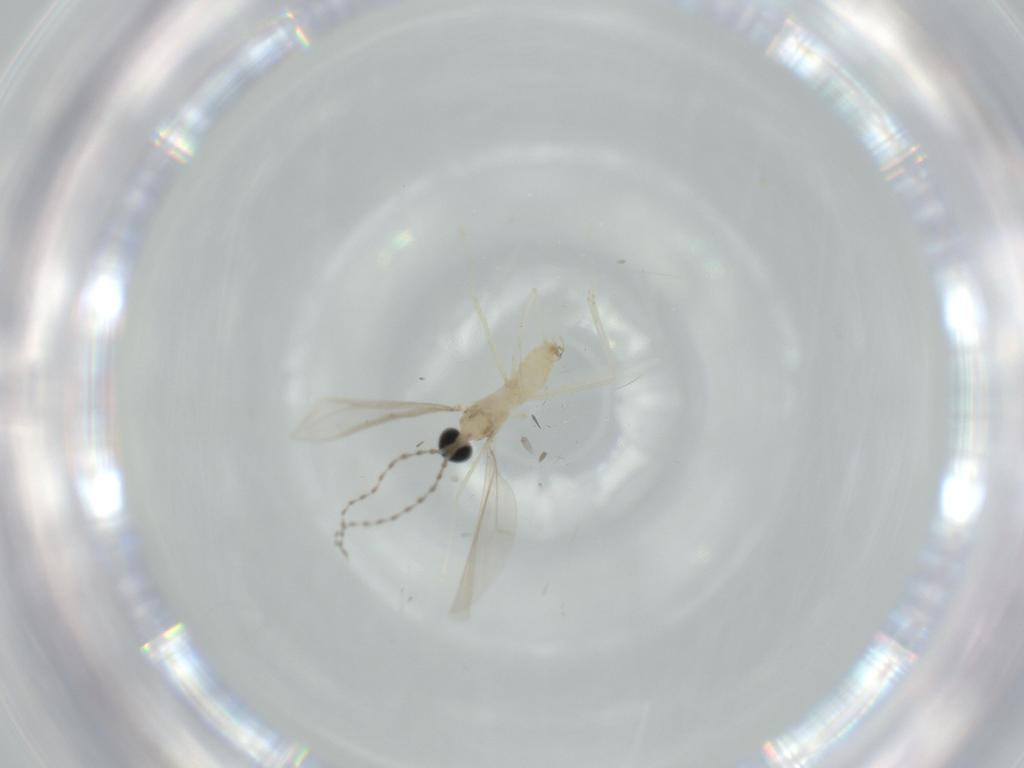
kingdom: Animalia
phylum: Arthropoda
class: Insecta
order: Diptera
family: Cecidomyiidae
